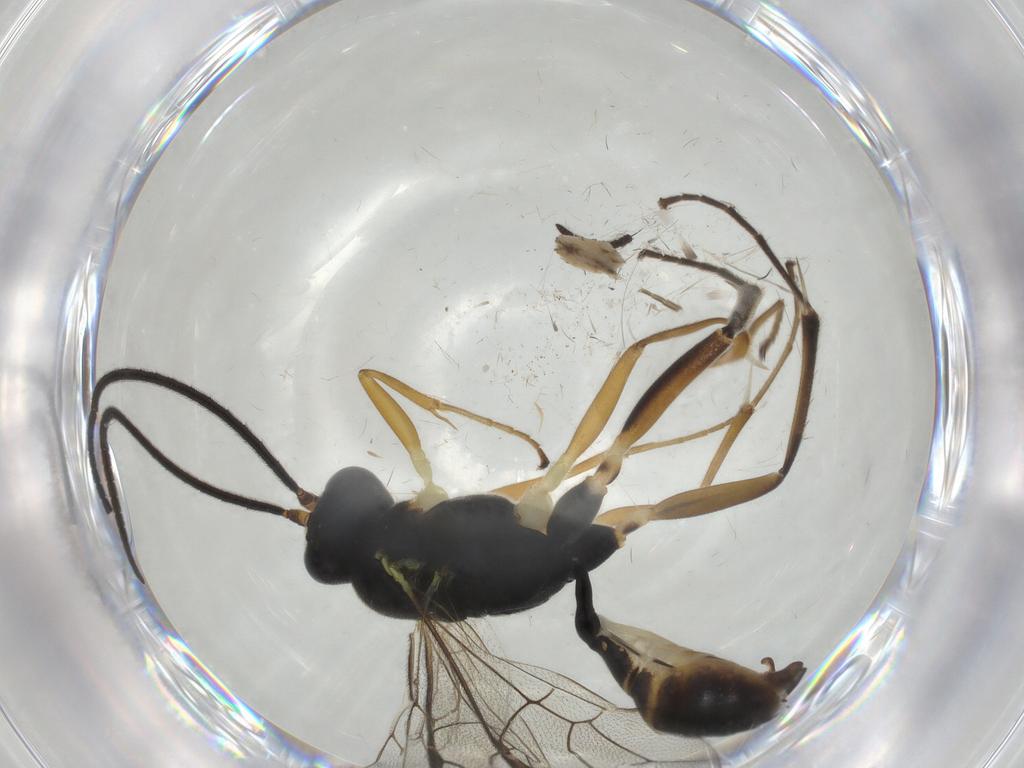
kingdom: Animalia
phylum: Arthropoda
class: Insecta
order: Hymenoptera
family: Ichneumonidae
